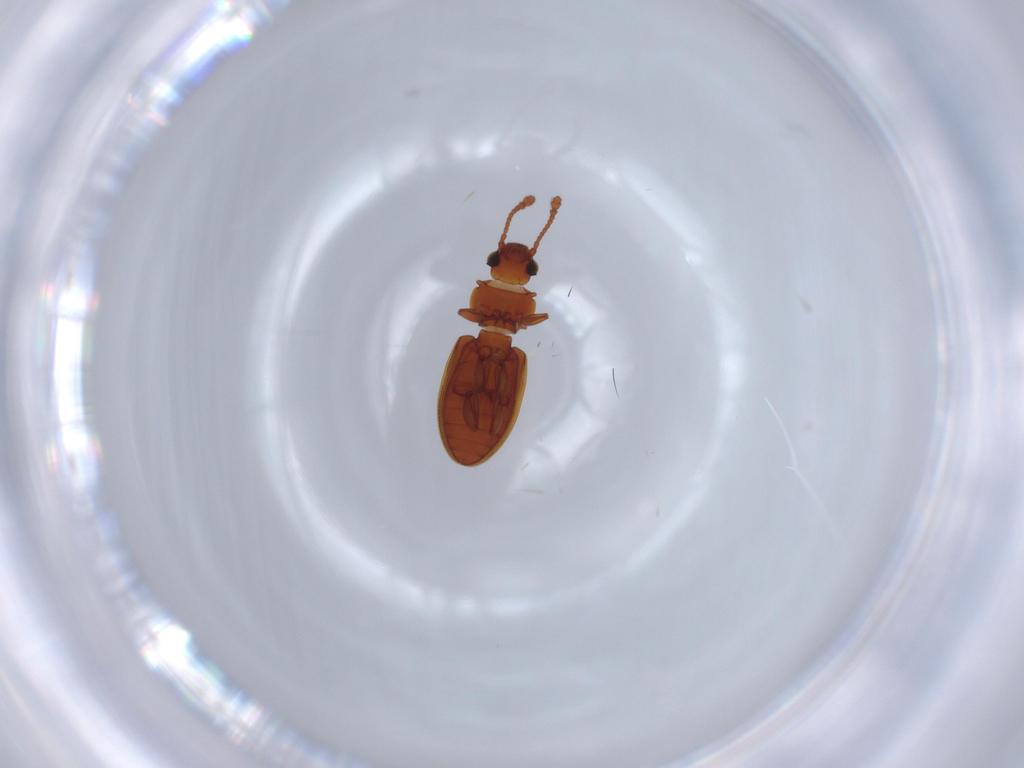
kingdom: Animalia
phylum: Arthropoda
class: Insecta
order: Coleoptera
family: Silvanidae
